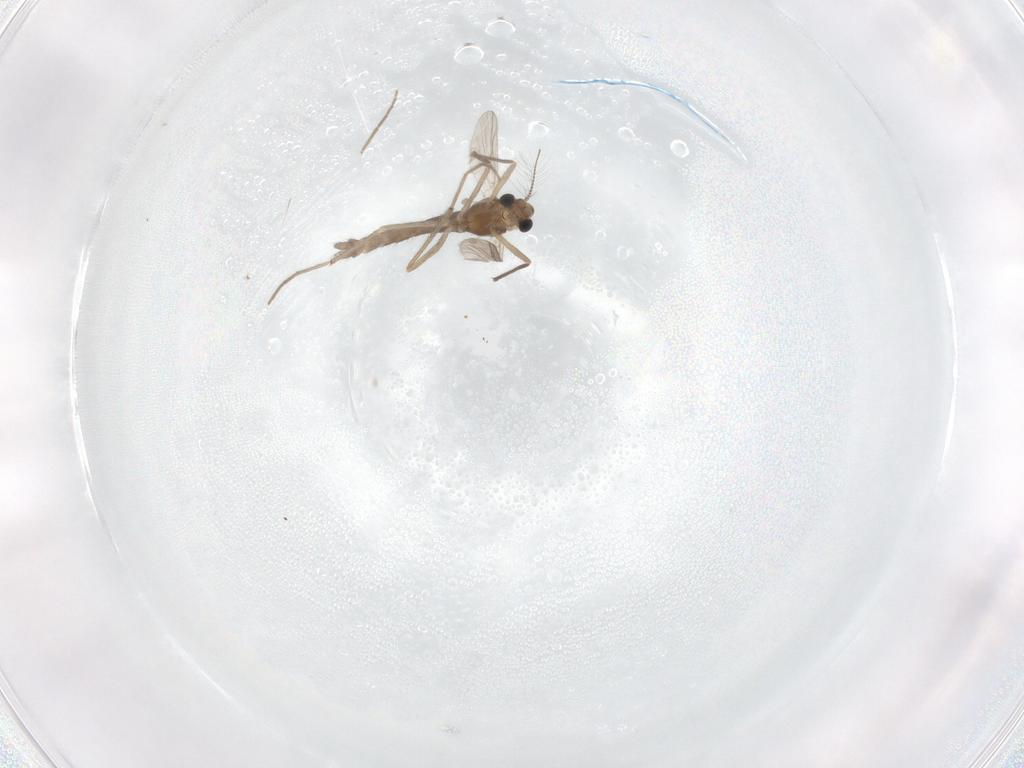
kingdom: Animalia
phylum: Arthropoda
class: Insecta
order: Diptera
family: Chironomidae
